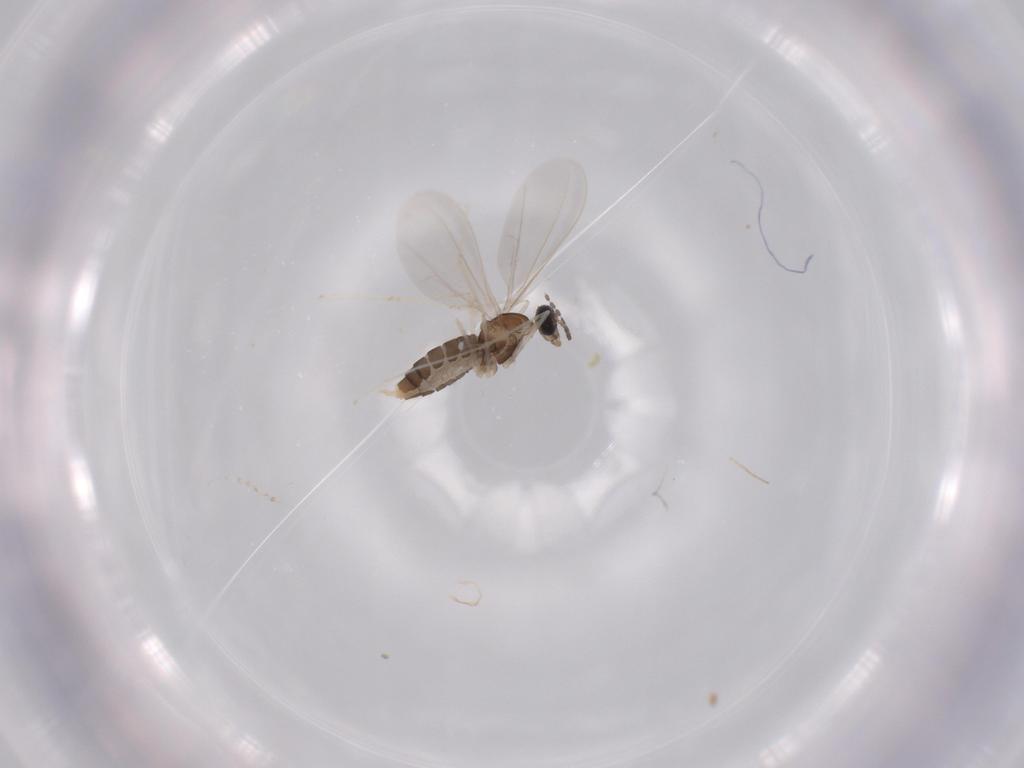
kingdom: Animalia
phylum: Arthropoda
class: Insecta
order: Diptera
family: Cecidomyiidae
